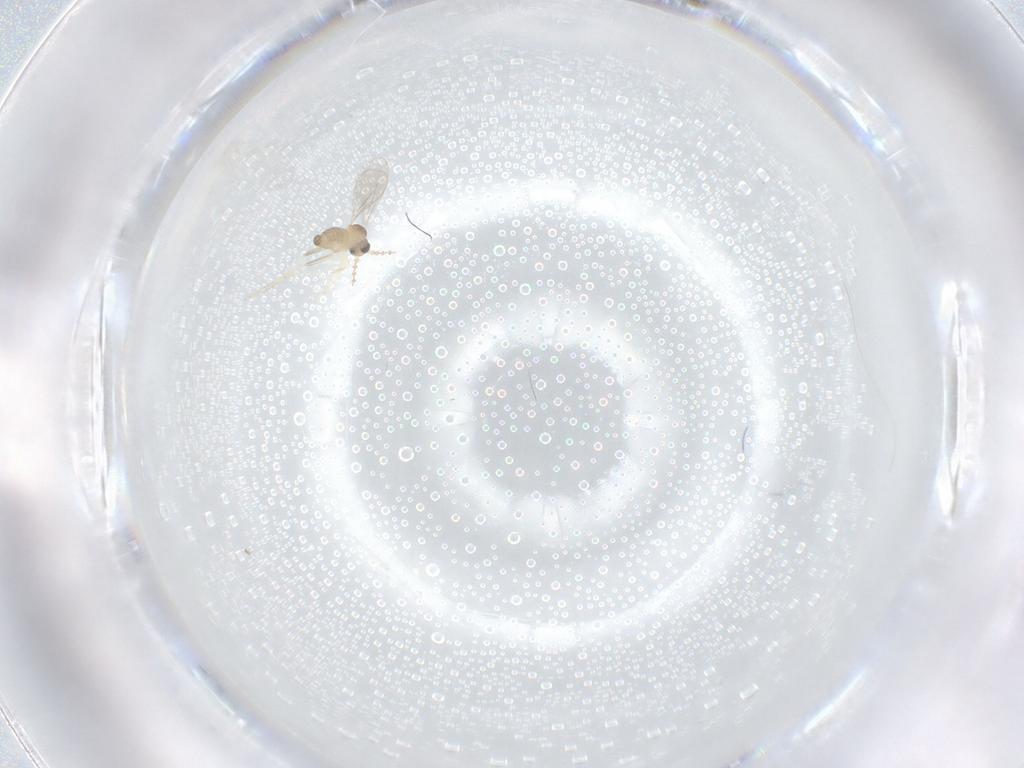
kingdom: Animalia
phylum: Arthropoda
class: Insecta
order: Diptera
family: Cecidomyiidae
